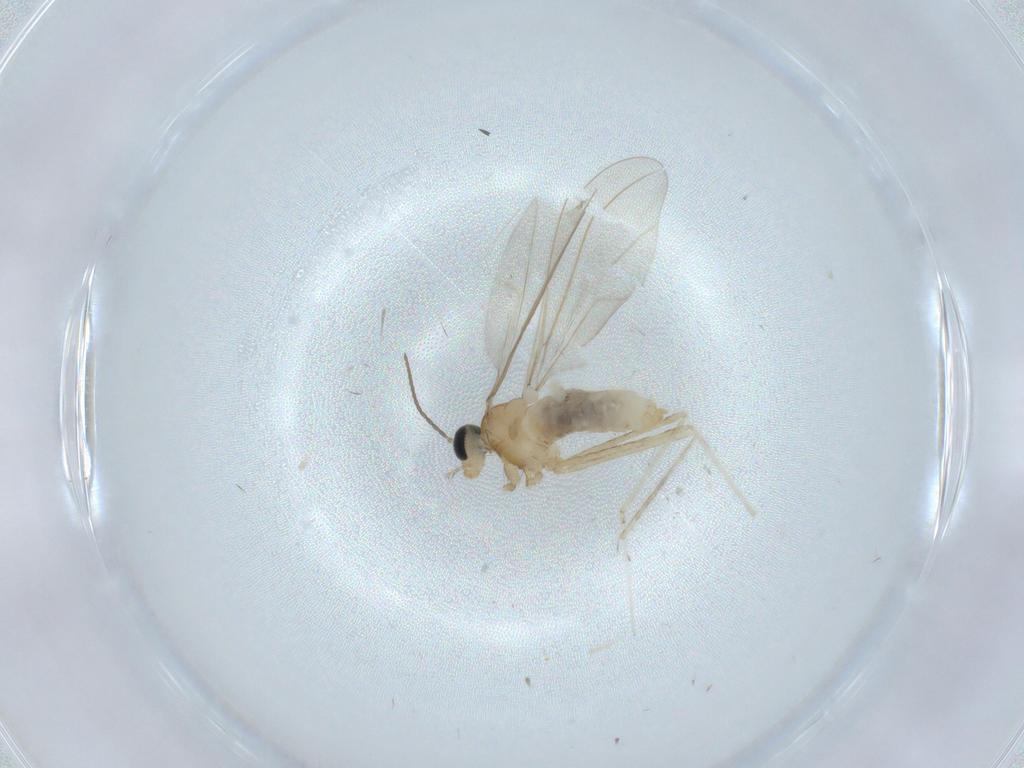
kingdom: Animalia
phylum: Arthropoda
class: Insecta
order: Diptera
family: Cecidomyiidae
